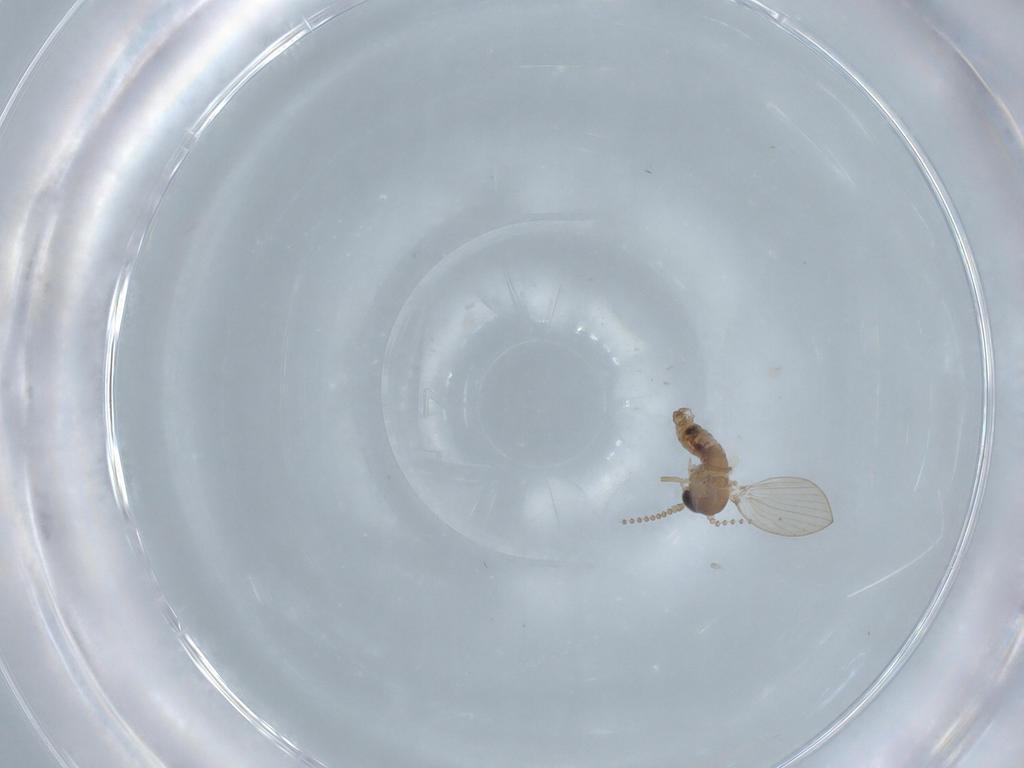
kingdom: Animalia
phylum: Arthropoda
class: Insecta
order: Diptera
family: Psychodidae
